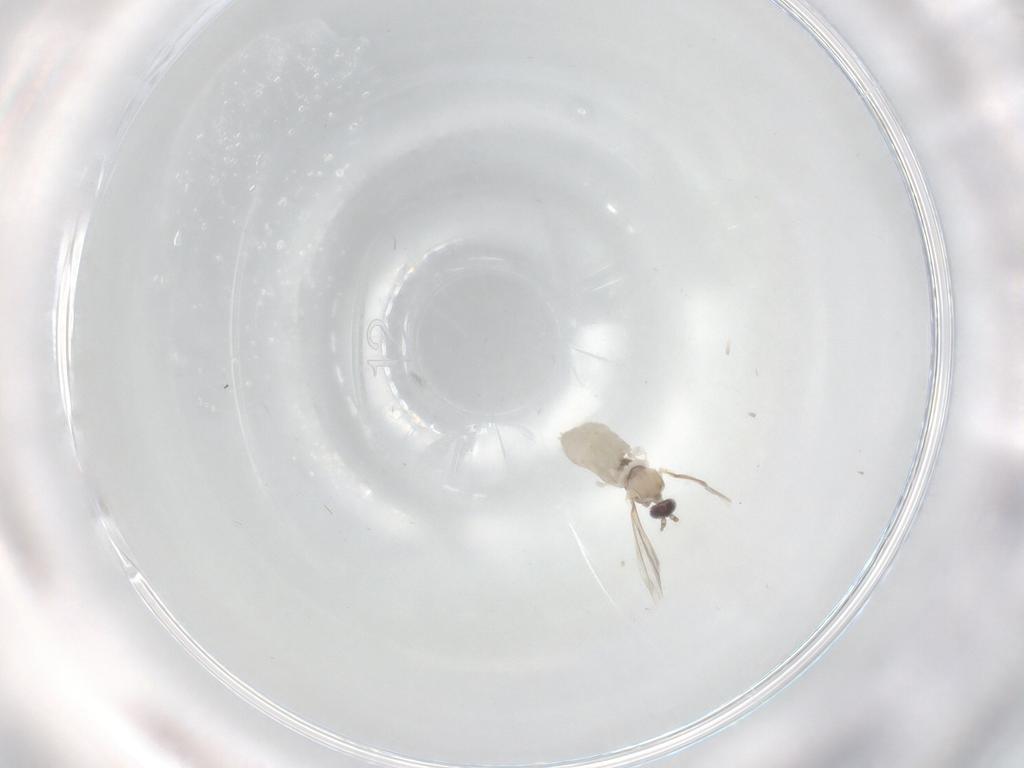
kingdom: Animalia
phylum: Arthropoda
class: Insecta
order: Diptera
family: Cecidomyiidae
